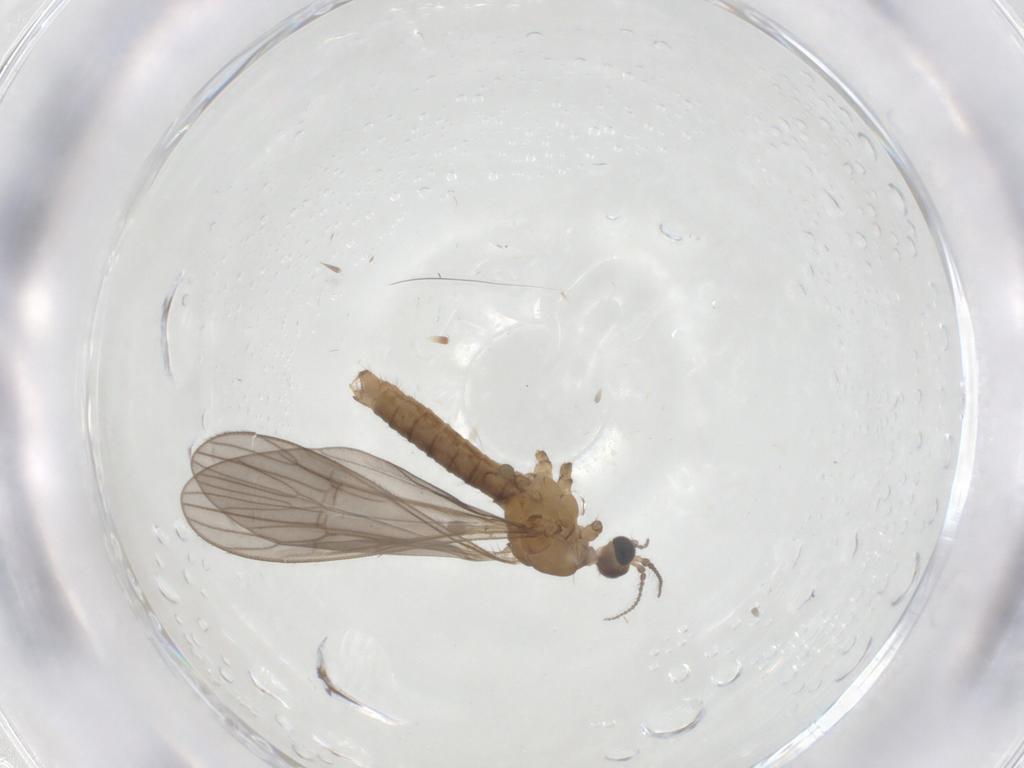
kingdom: Animalia
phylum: Arthropoda
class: Insecta
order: Diptera
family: Limoniidae
